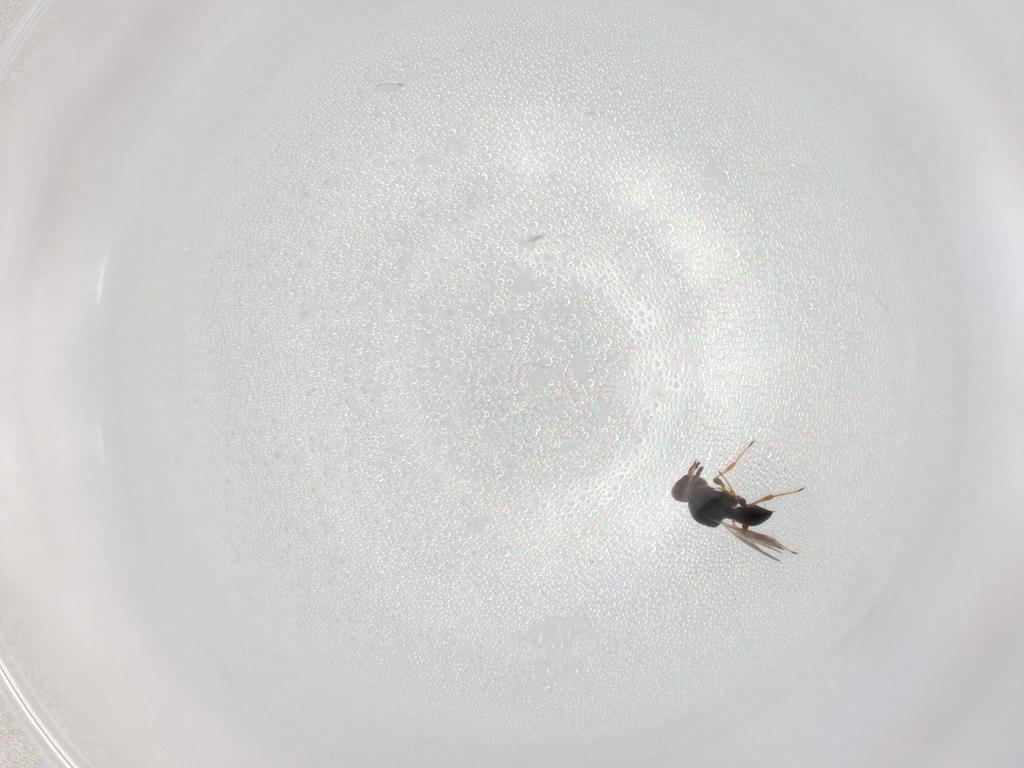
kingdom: Animalia
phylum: Arthropoda
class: Insecta
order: Hymenoptera
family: Platygastridae
